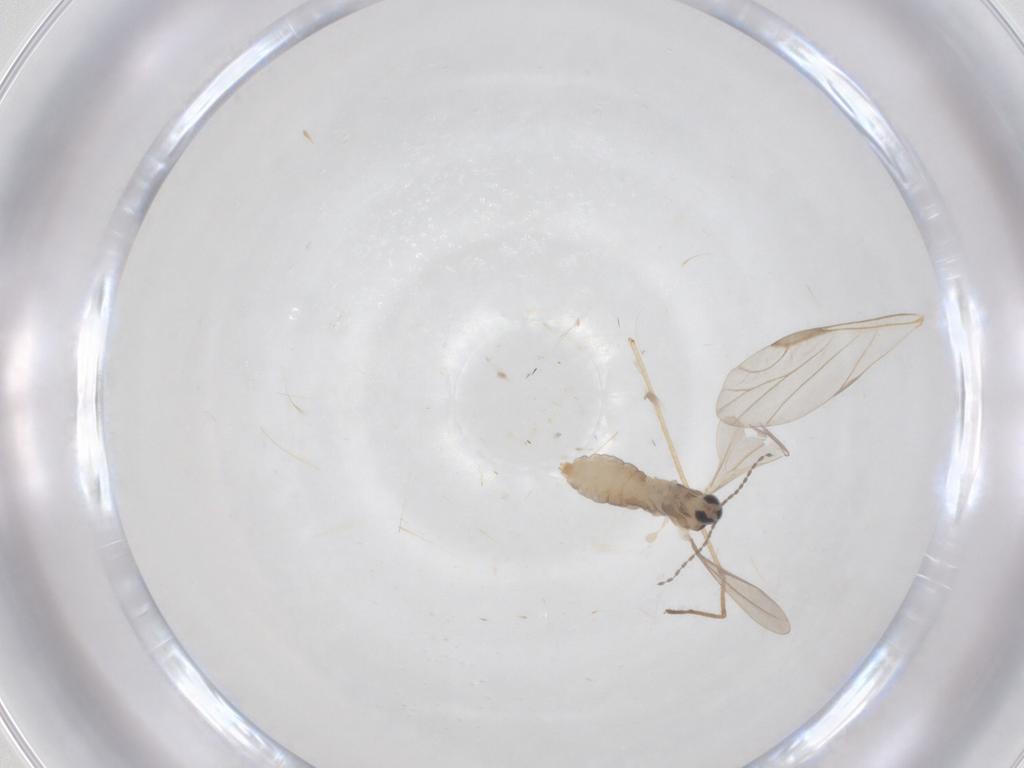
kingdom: Animalia
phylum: Arthropoda
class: Insecta
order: Diptera
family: Cecidomyiidae
